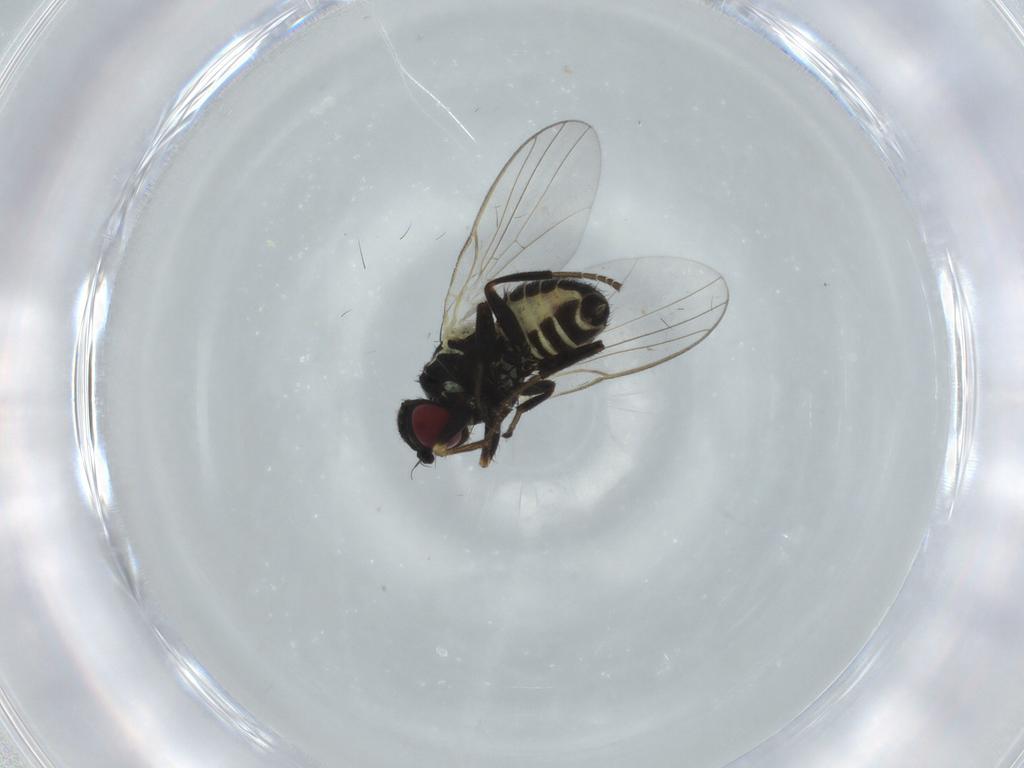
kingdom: Animalia
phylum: Arthropoda
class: Insecta
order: Diptera
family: Agromyzidae
